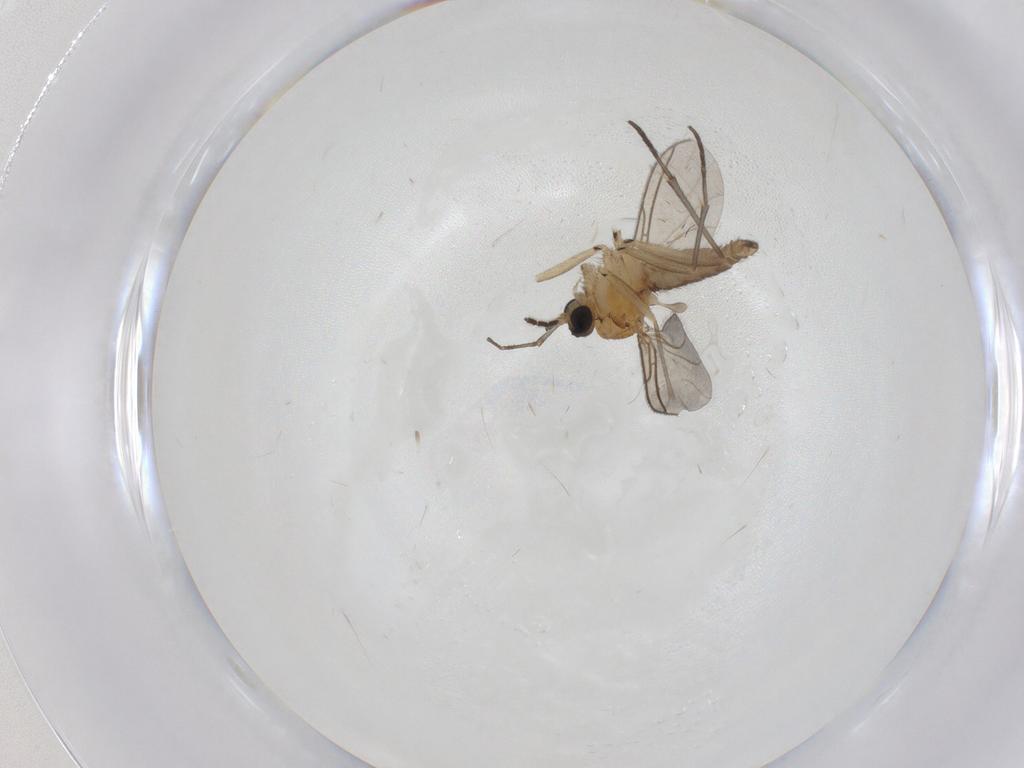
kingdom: Animalia
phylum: Arthropoda
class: Insecta
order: Diptera
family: Sciaridae
